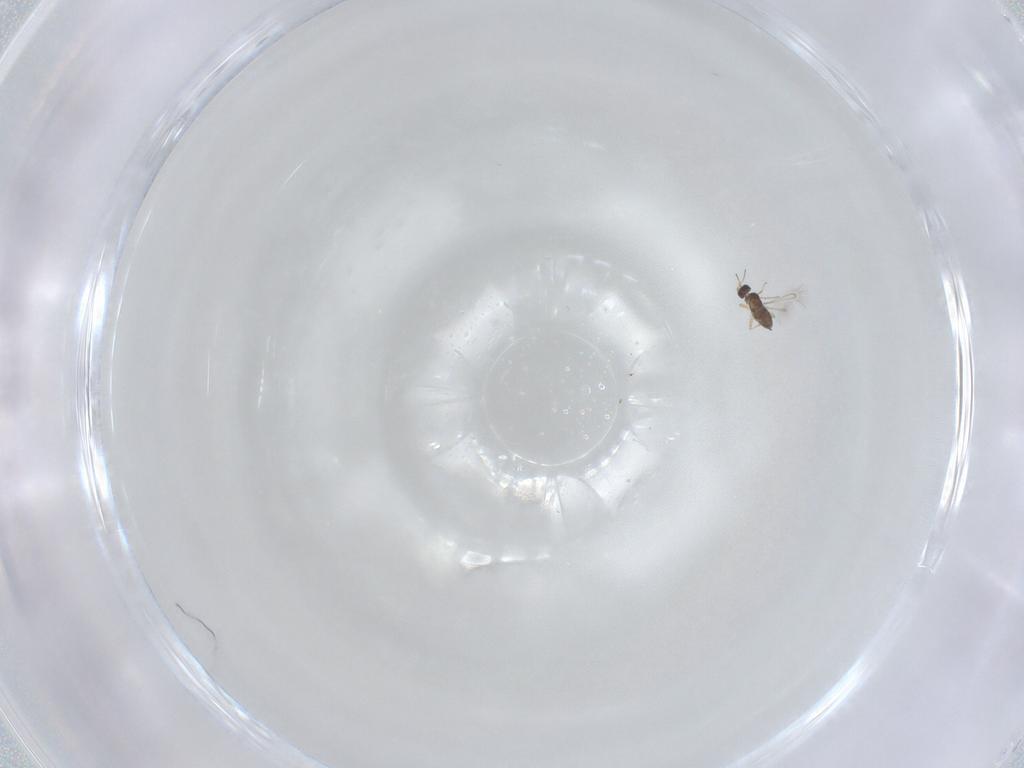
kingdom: Animalia
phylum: Arthropoda
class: Insecta
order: Hymenoptera
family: Mymaridae
